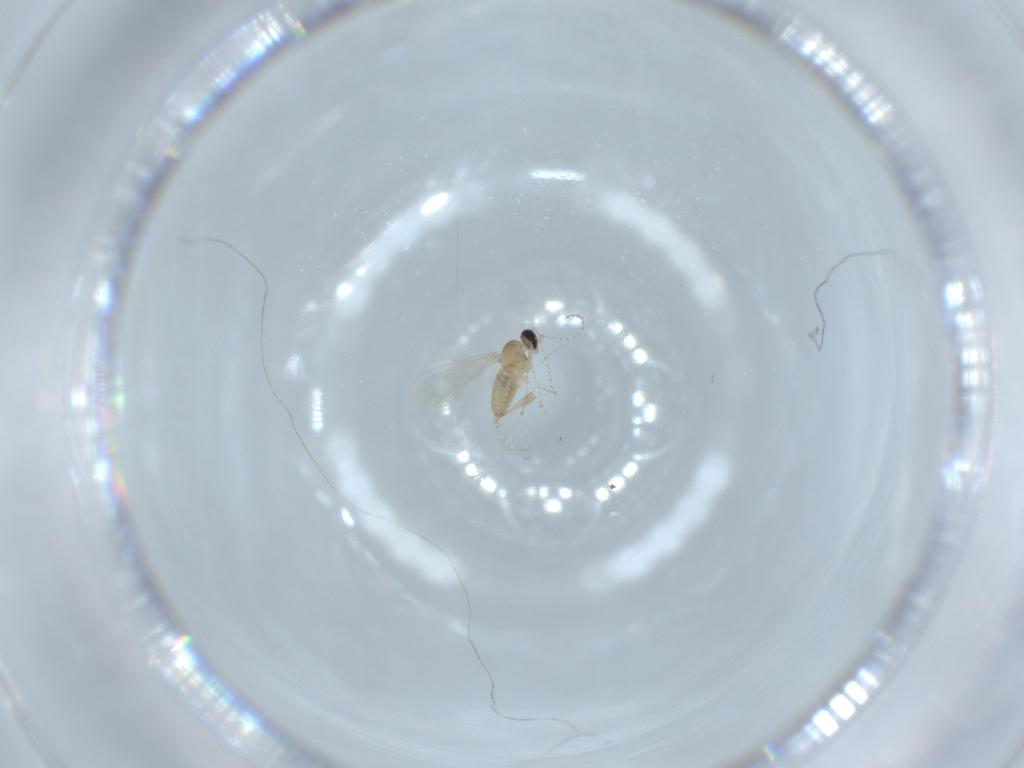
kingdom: Animalia
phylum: Arthropoda
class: Insecta
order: Diptera
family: Cecidomyiidae
